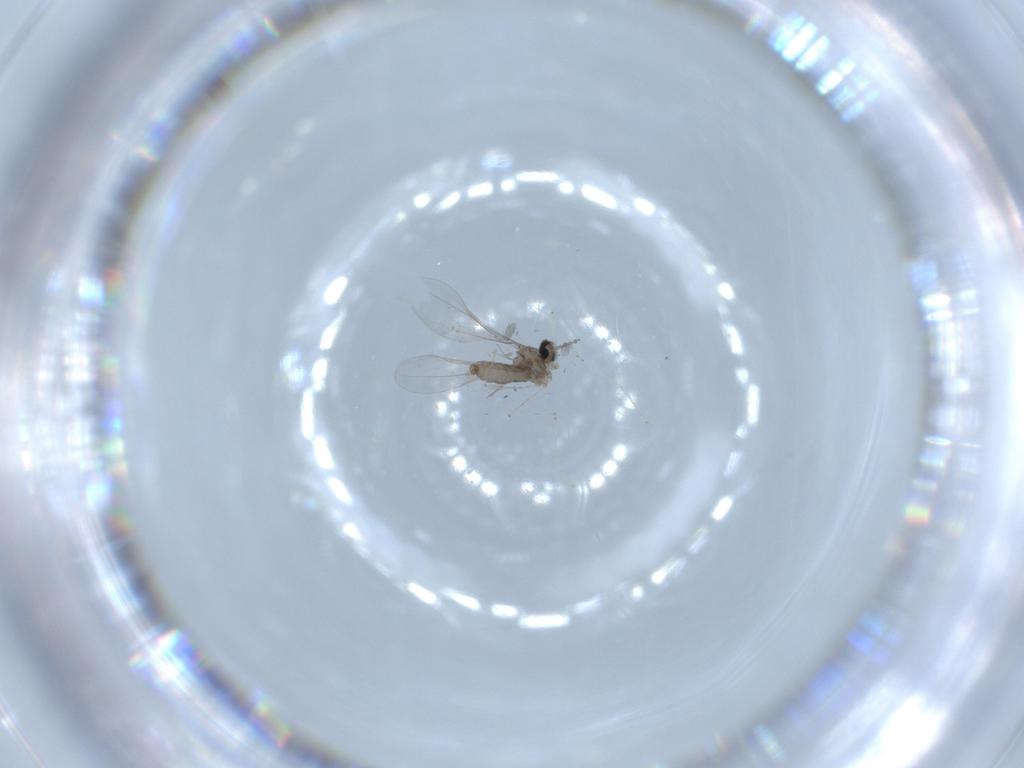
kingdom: Animalia
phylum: Arthropoda
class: Insecta
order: Diptera
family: Cecidomyiidae
